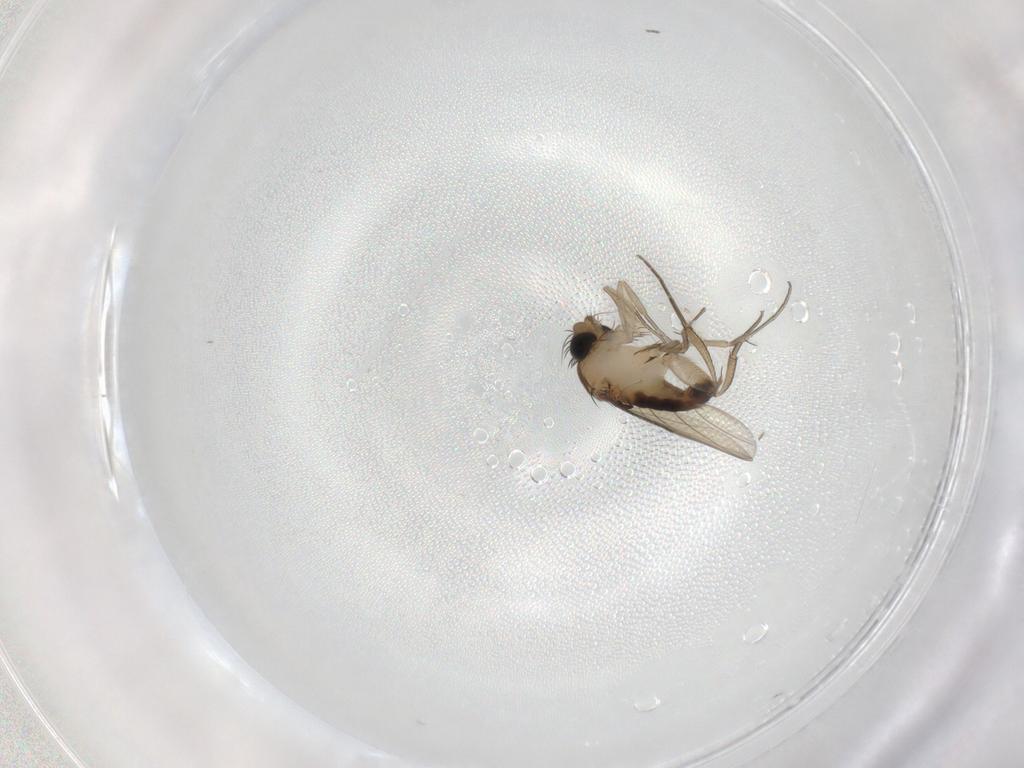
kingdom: Animalia
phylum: Arthropoda
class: Insecta
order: Diptera
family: Phoridae
